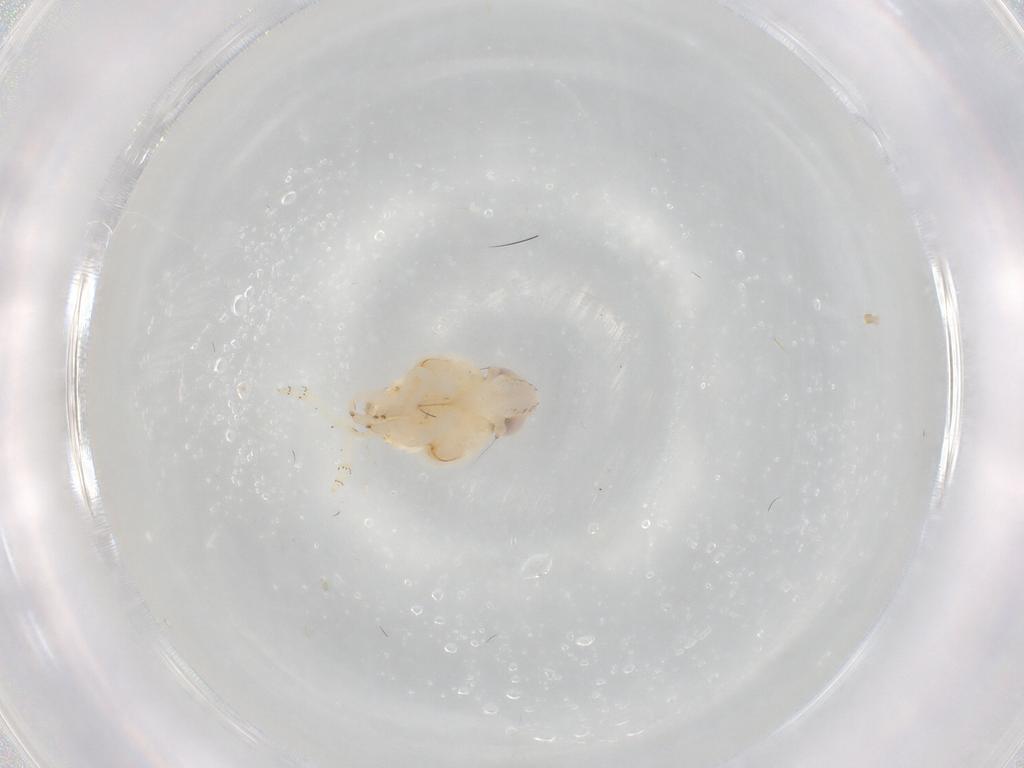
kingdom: Animalia
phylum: Arthropoda
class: Insecta
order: Hemiptera
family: Nogodinidae
